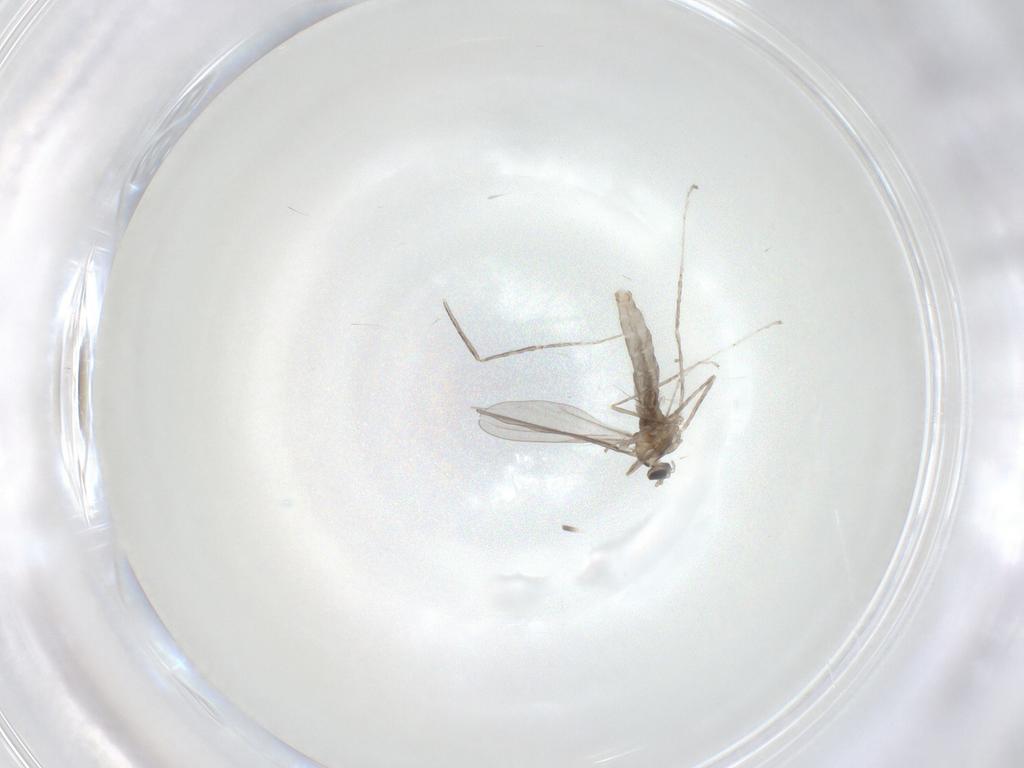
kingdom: Animalia
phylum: Arthropoda
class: Insecta
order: Diptera
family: Cecidomyiidae
